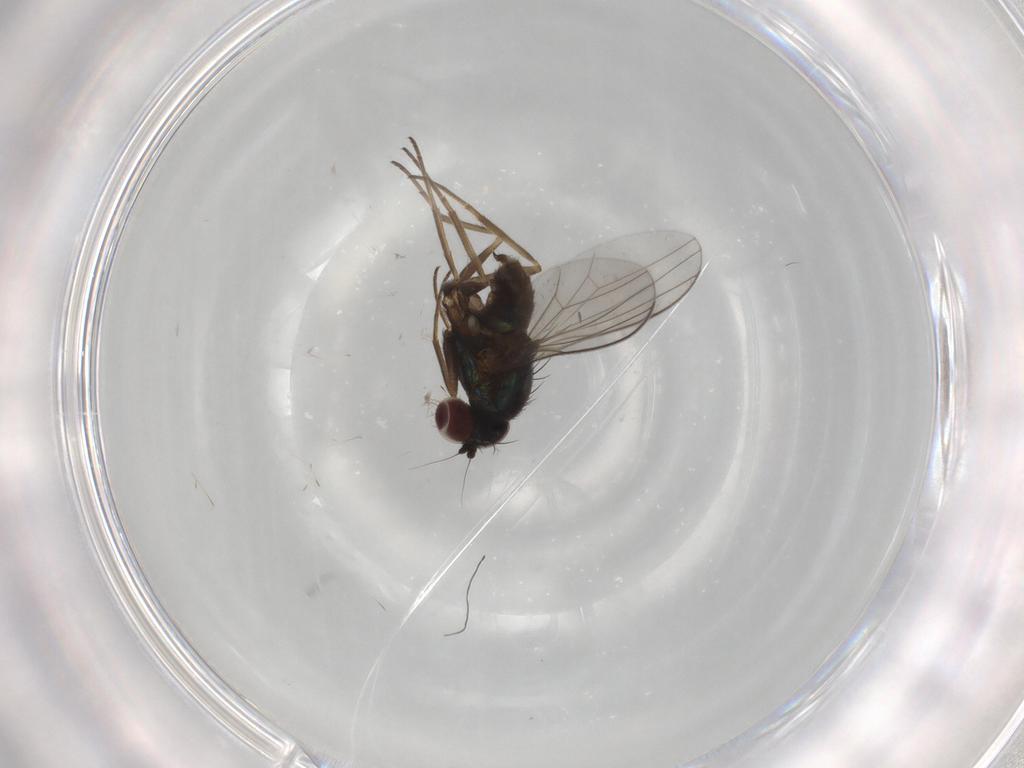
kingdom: Animalia
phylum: Arthropoda
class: Insecta
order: Diptera
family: Dolichopodidae
